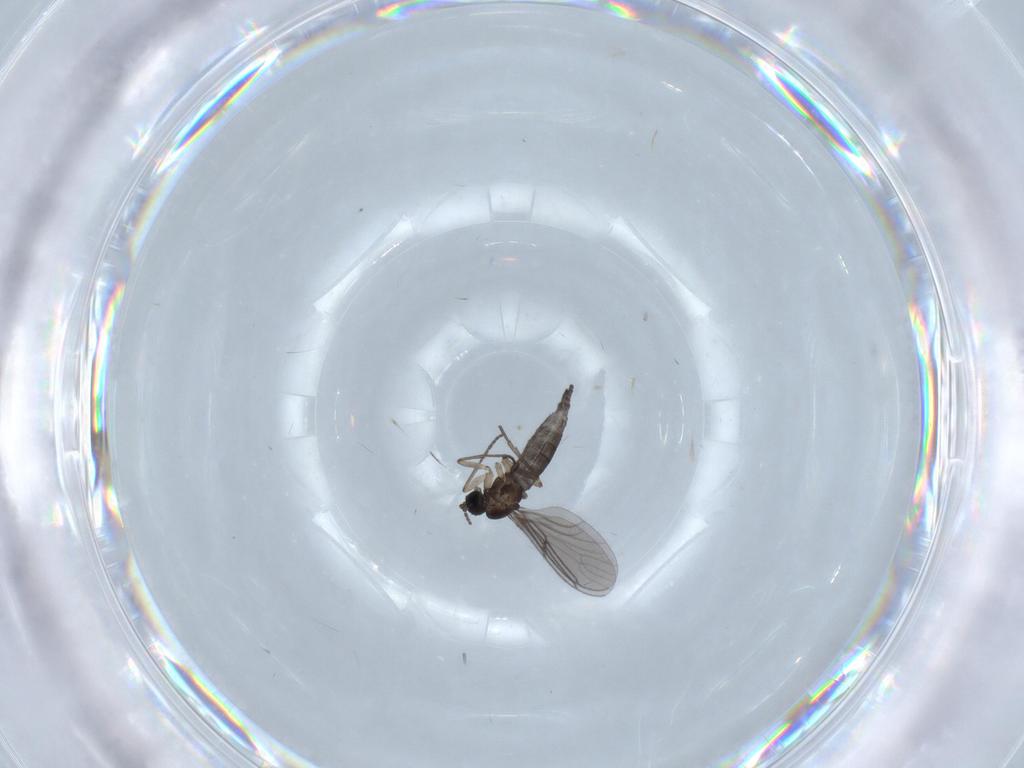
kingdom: Animalia
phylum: Arthropoda
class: Insecta
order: Diptera
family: Sciaridae
